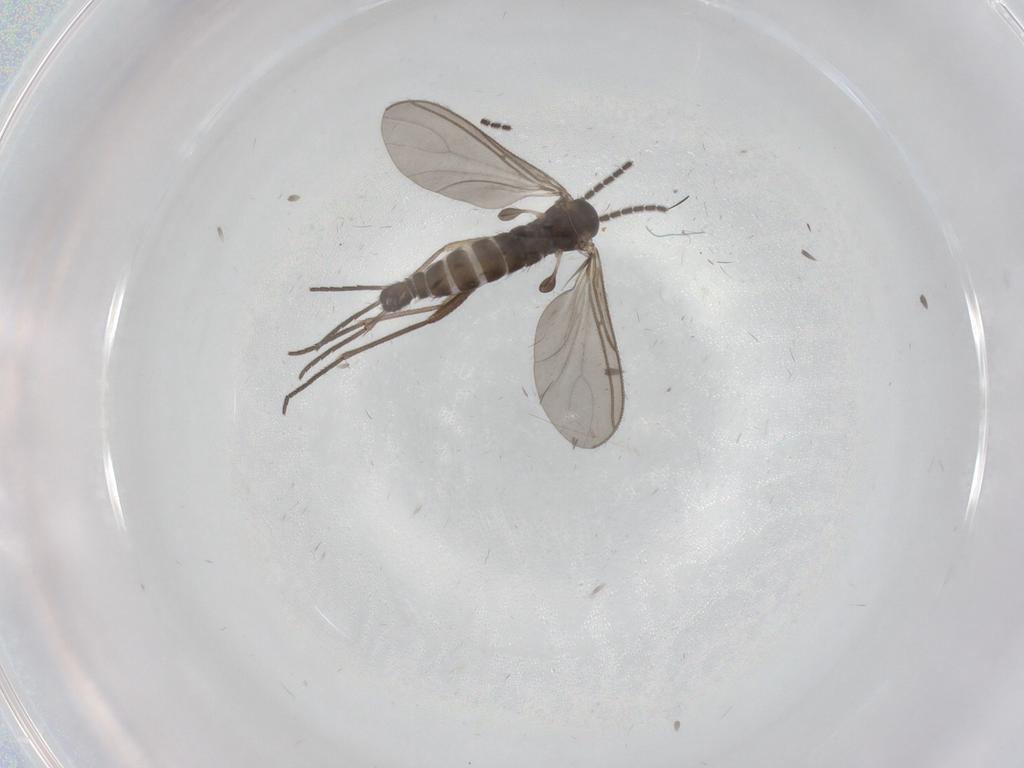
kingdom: Animalia
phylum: Arthropoda
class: Insecta
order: Diptera
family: Sciaridae
